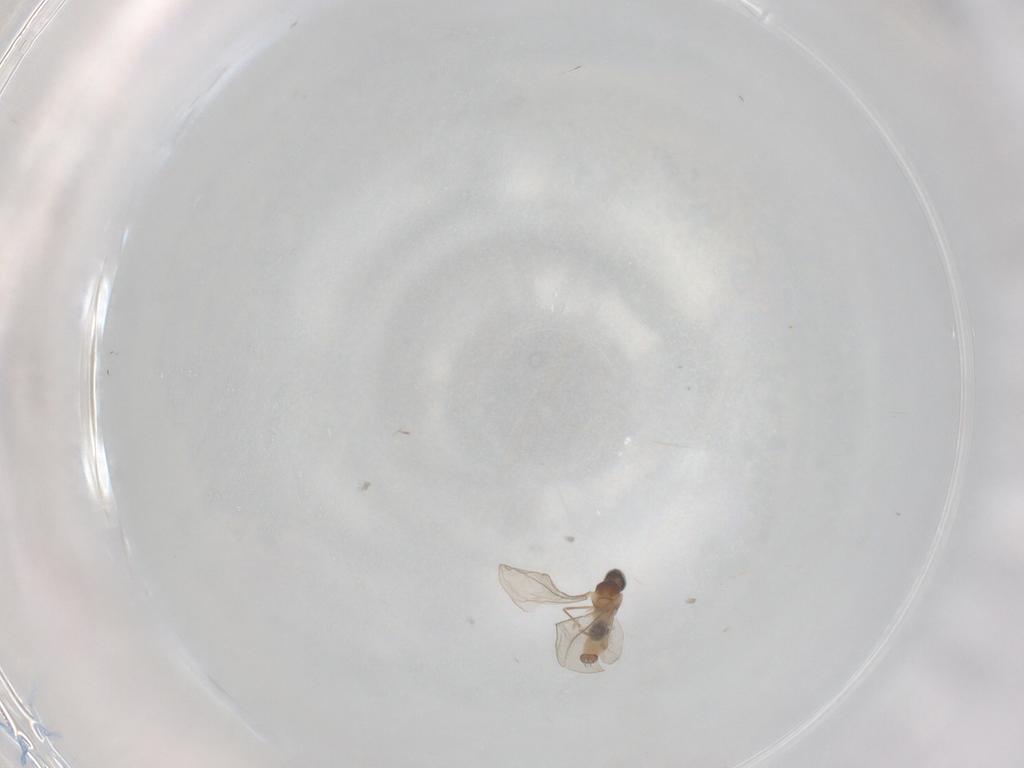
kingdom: Animalia
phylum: Arthropoda
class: Insecta
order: Diptera
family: Cecidomyiidae
